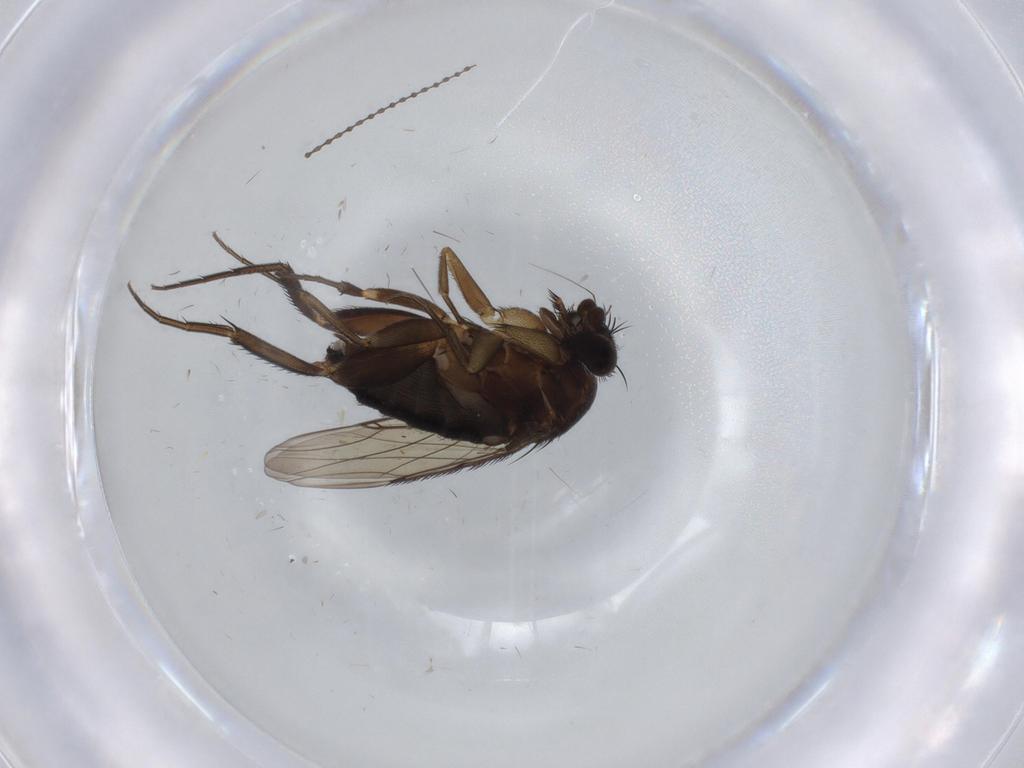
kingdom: Animalia
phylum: Arthropoda
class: Insecta
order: Diptera
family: Phoridae
